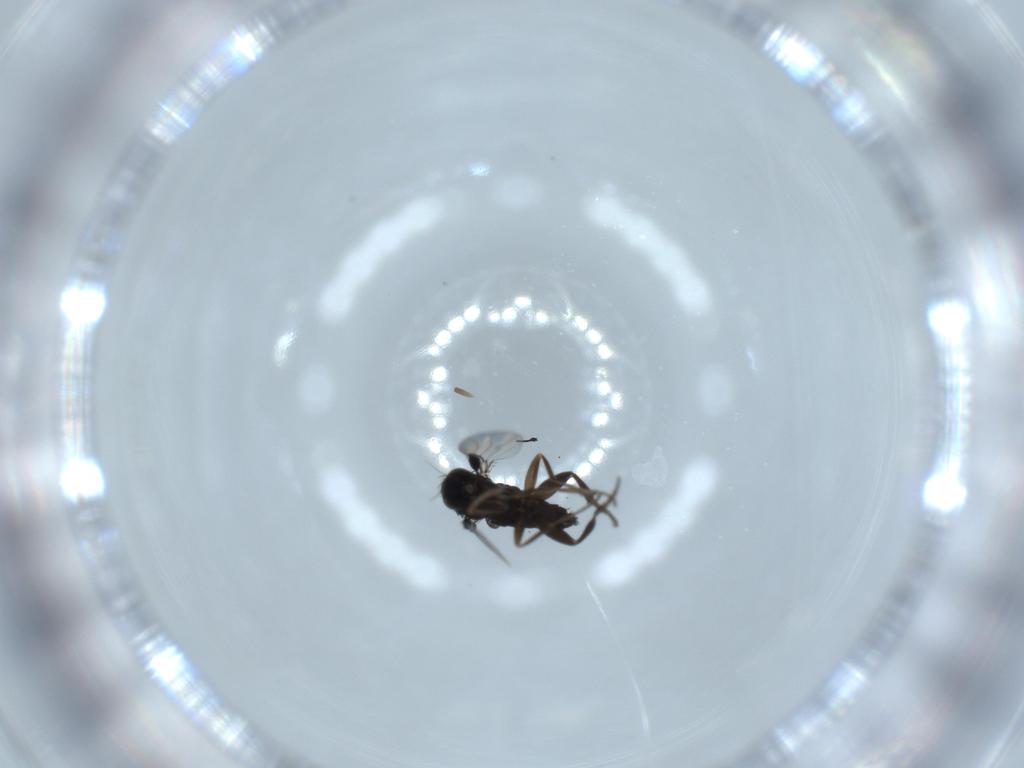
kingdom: Animalia
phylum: Arthropoda
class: Insecta
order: Diptera
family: Phoridae
